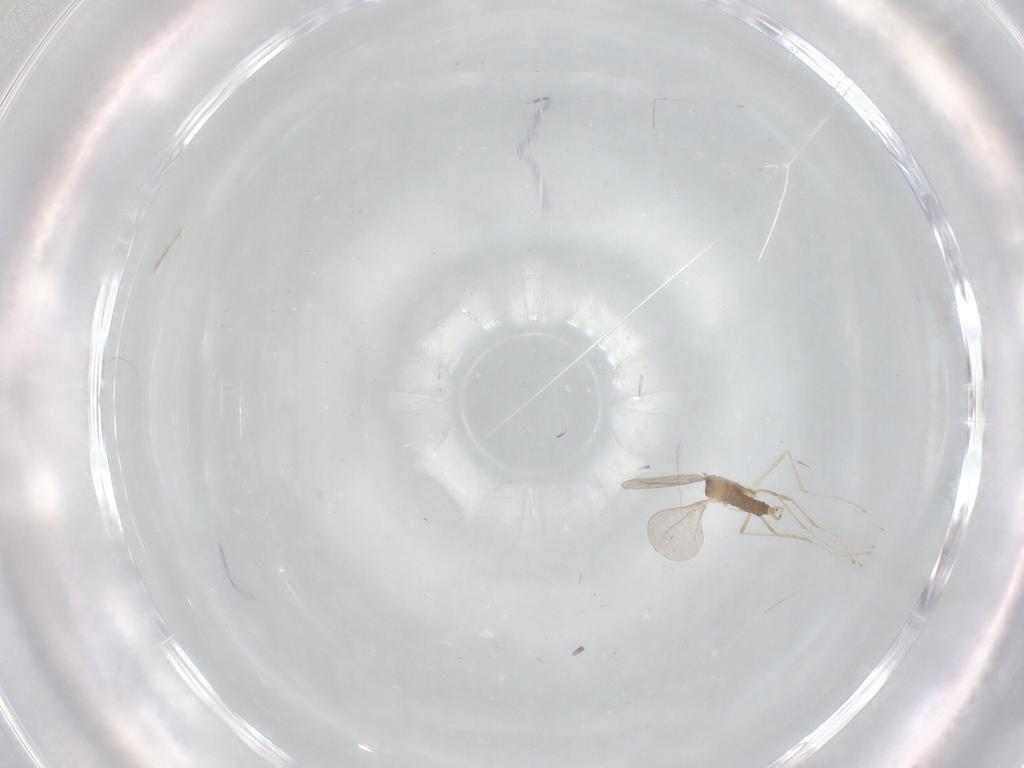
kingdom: Animalia
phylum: Arthropoda
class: Insecta
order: Diptera
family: Cecidomyiidae
